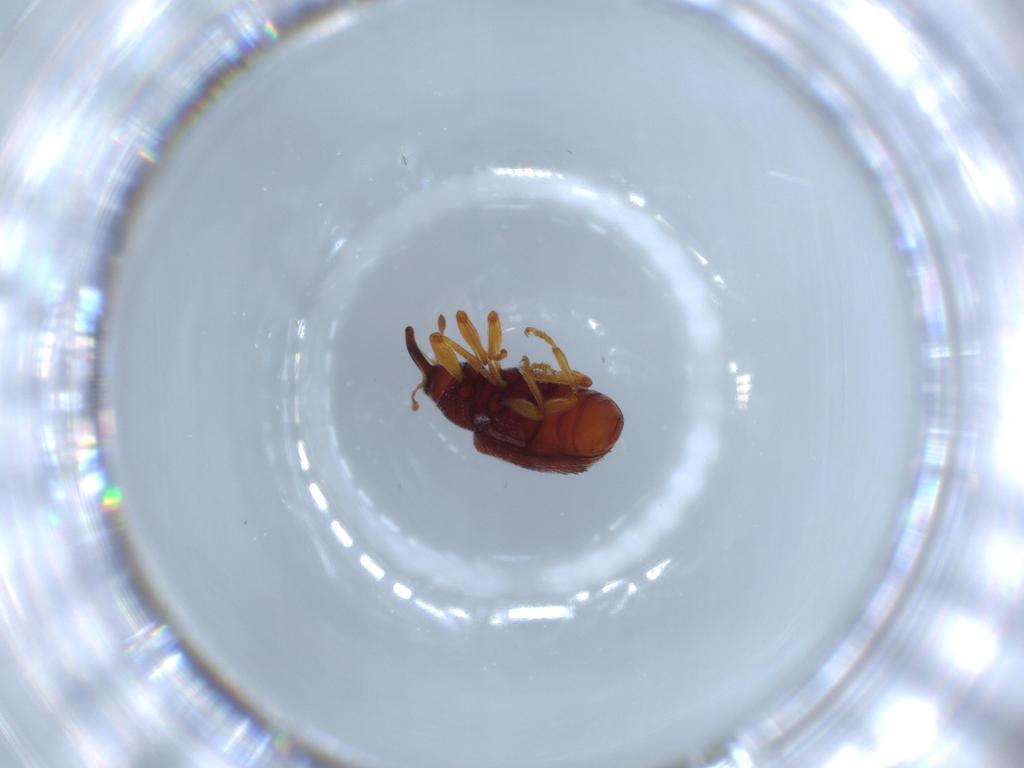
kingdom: Animalia
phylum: Arthropoda
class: Insecta
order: Coleoptera
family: Curculionidae
